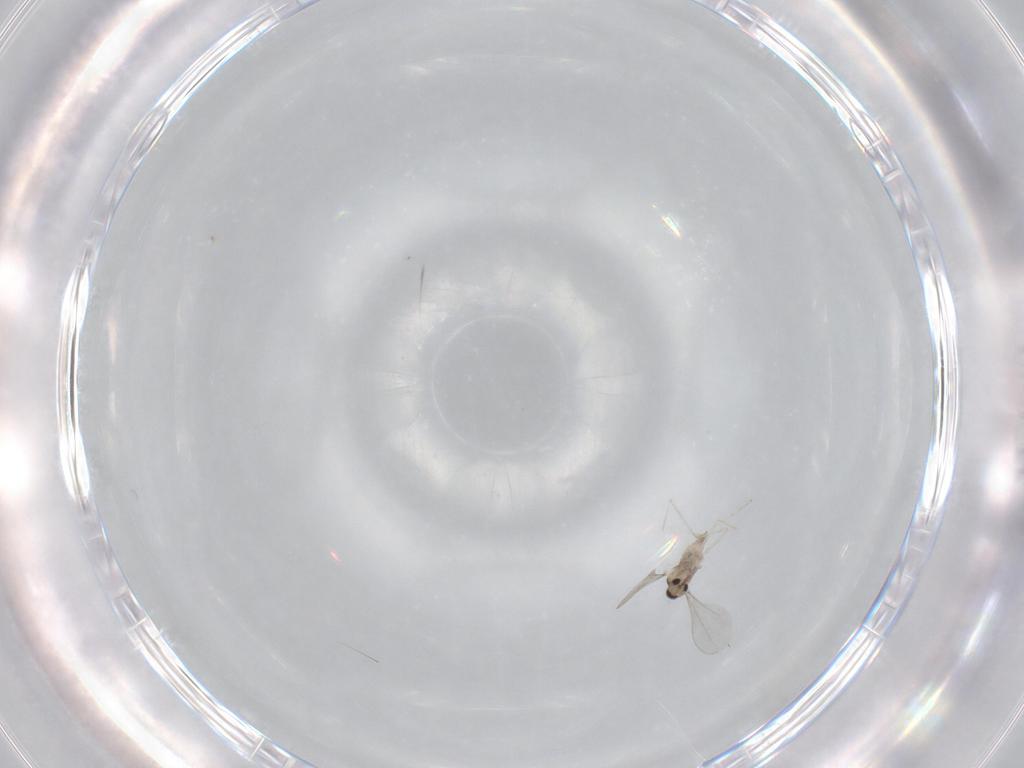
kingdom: Animalia
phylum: Arthropoda
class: Insecta
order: Diptera
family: Cecidomyiidae
